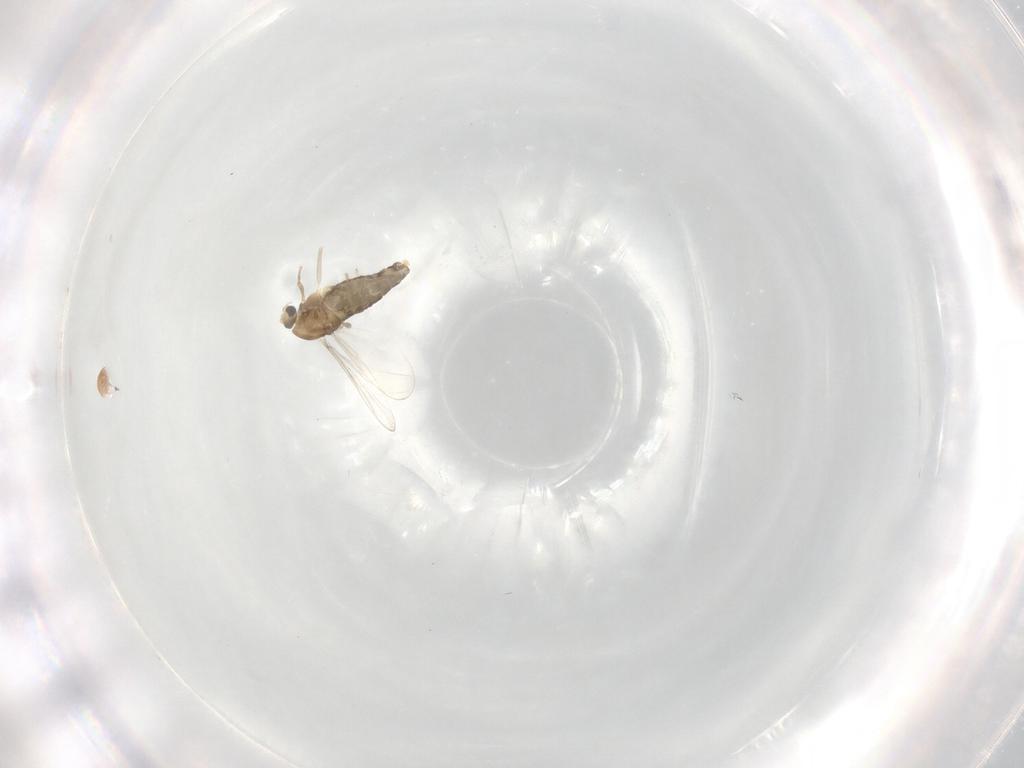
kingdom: Animalia
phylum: Arthropoda
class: Insecta
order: Diptera
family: Chironomidae
